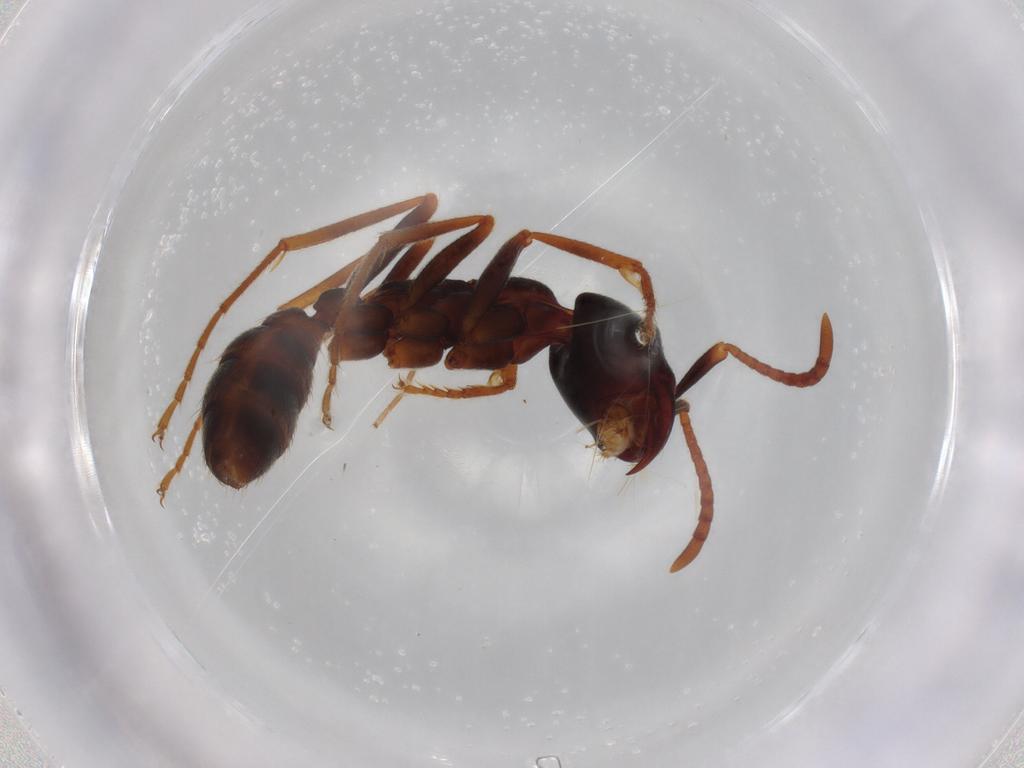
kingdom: Animalia
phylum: Arthropoda
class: Insecta
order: Hymenoptera
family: Formicidae
